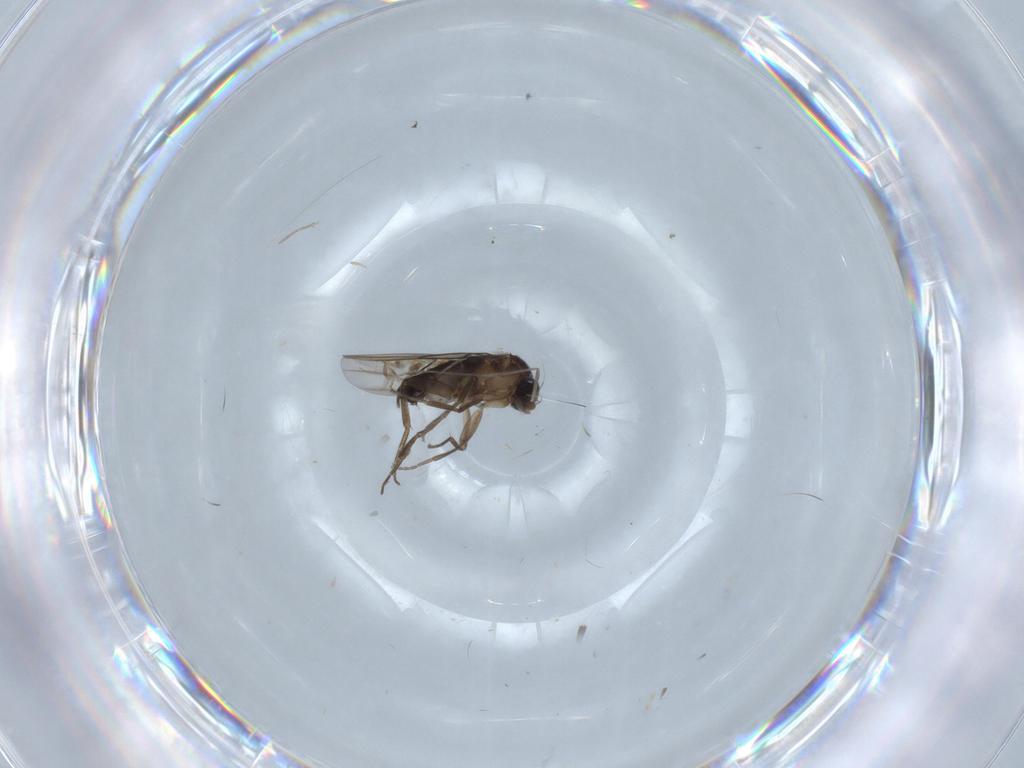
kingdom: Animalia
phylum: Arthropoda
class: Insecta
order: Diptera
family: Phoridae
